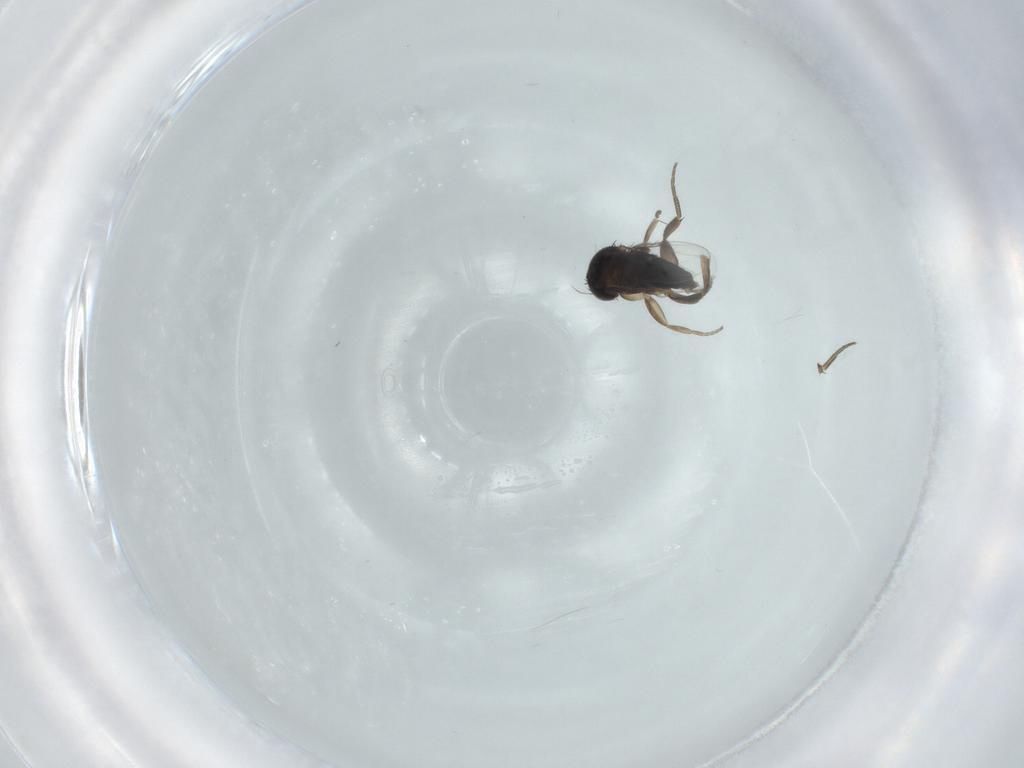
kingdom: Animalia
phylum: Arthropoda
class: Insecta
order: Diptera
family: Phoridae
